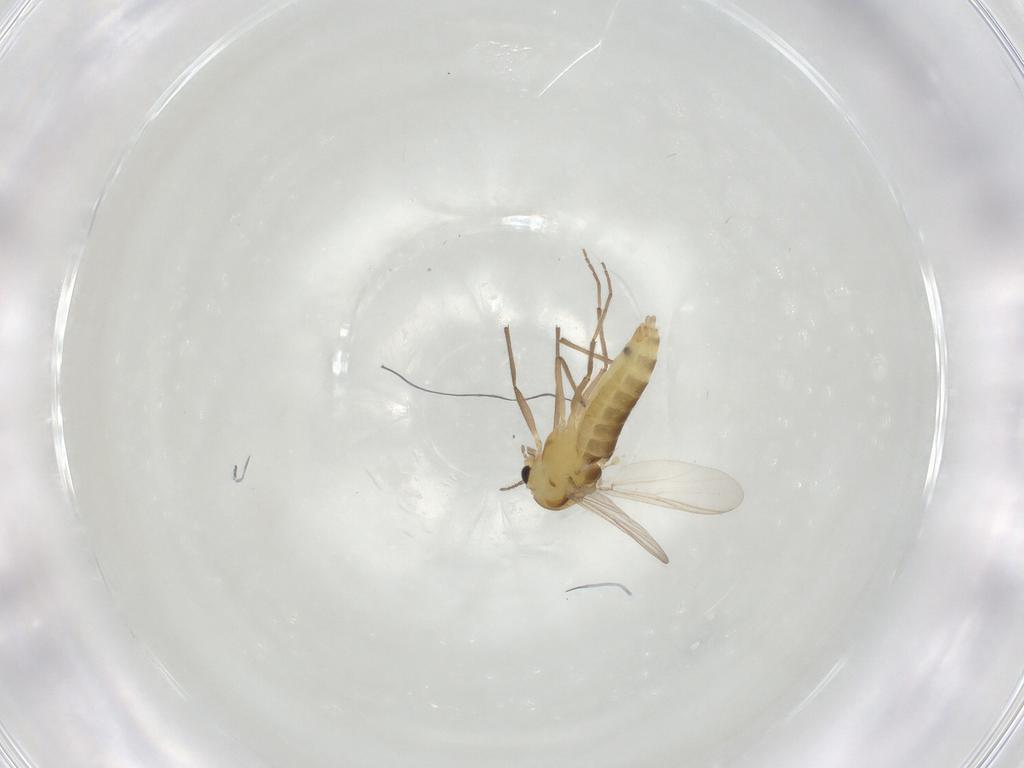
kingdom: Animalia
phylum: Arthropoda
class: Insecta
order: Diptera
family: Chironomidae
